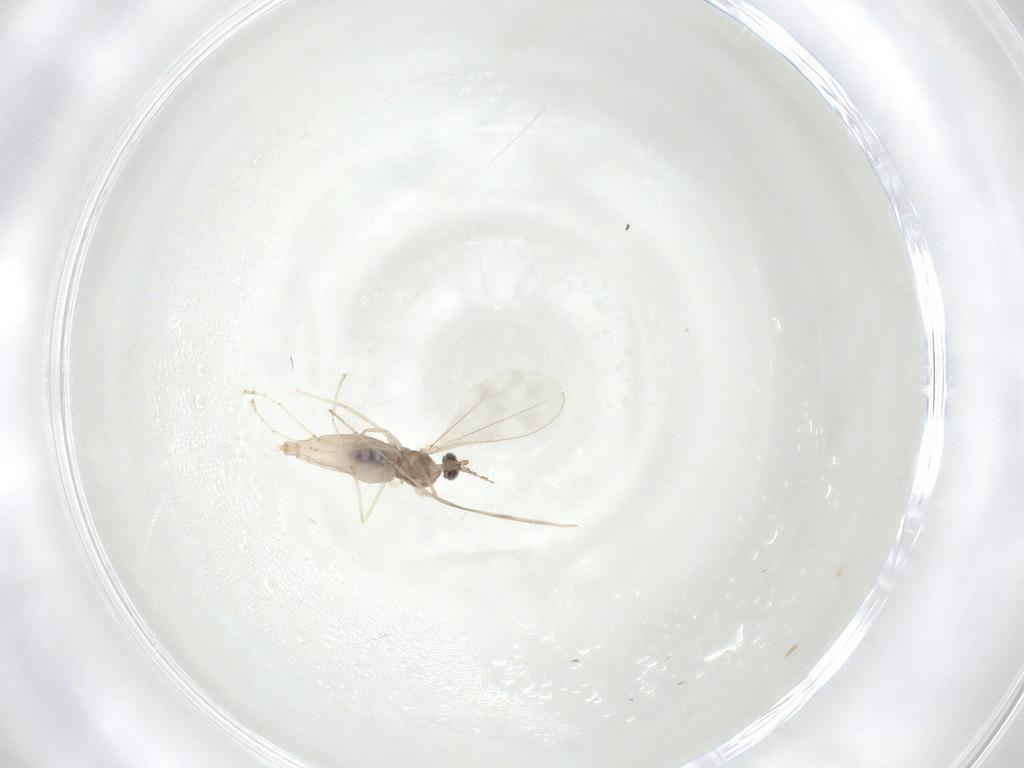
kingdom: Animalia
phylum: Arthropoda
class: Insecta
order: Diptera
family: Cecidomyiidae
